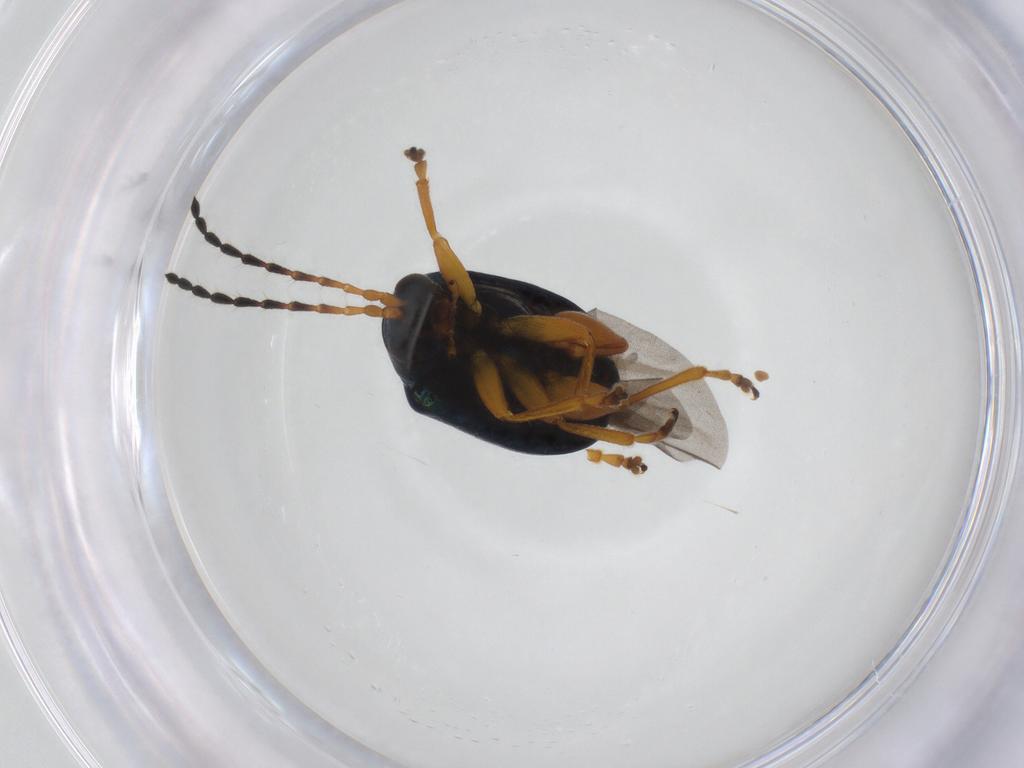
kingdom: Animalia
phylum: Arthropoda
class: Insecta
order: Coleoptera
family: Chrysomelidae
